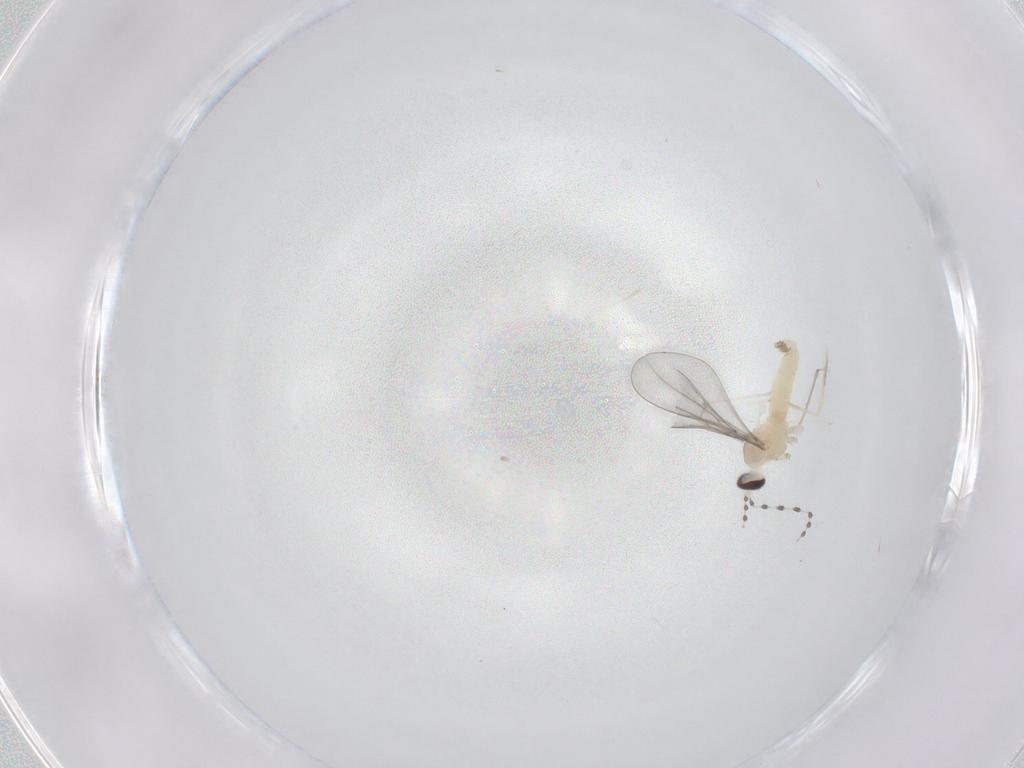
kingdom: Animalia
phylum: Arthropoda
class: Insecta
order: Diptera
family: Cecidomyiidae
